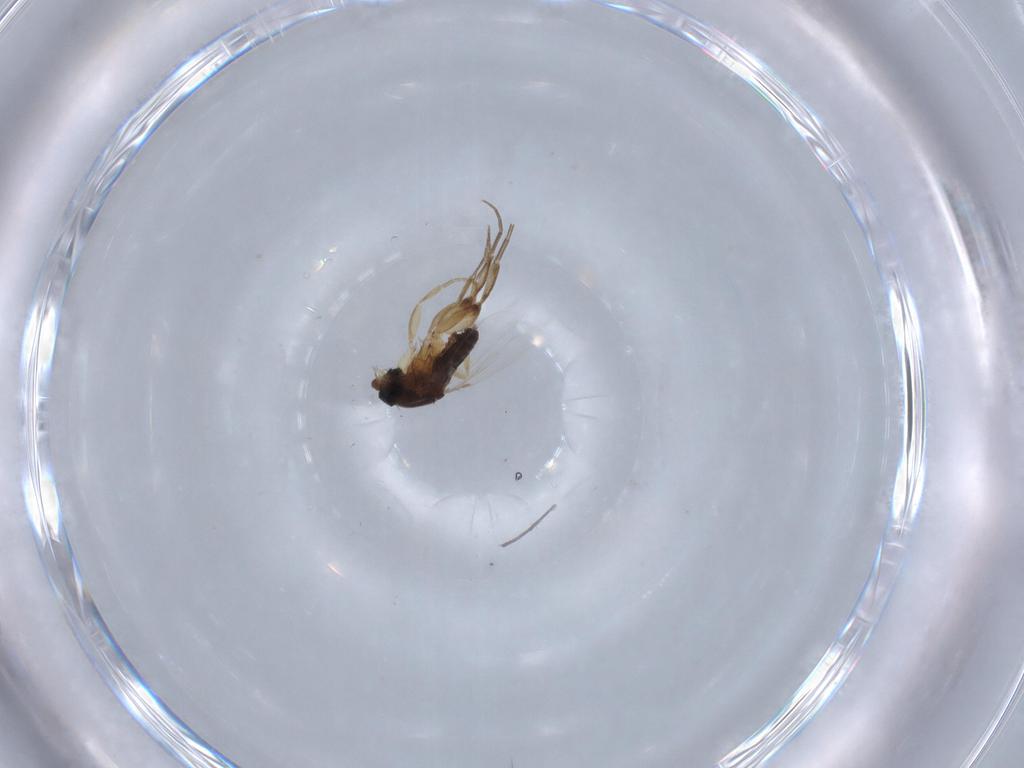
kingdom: Animalia
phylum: Arthropoda
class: Insecta
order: Diptera
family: Phoridae
